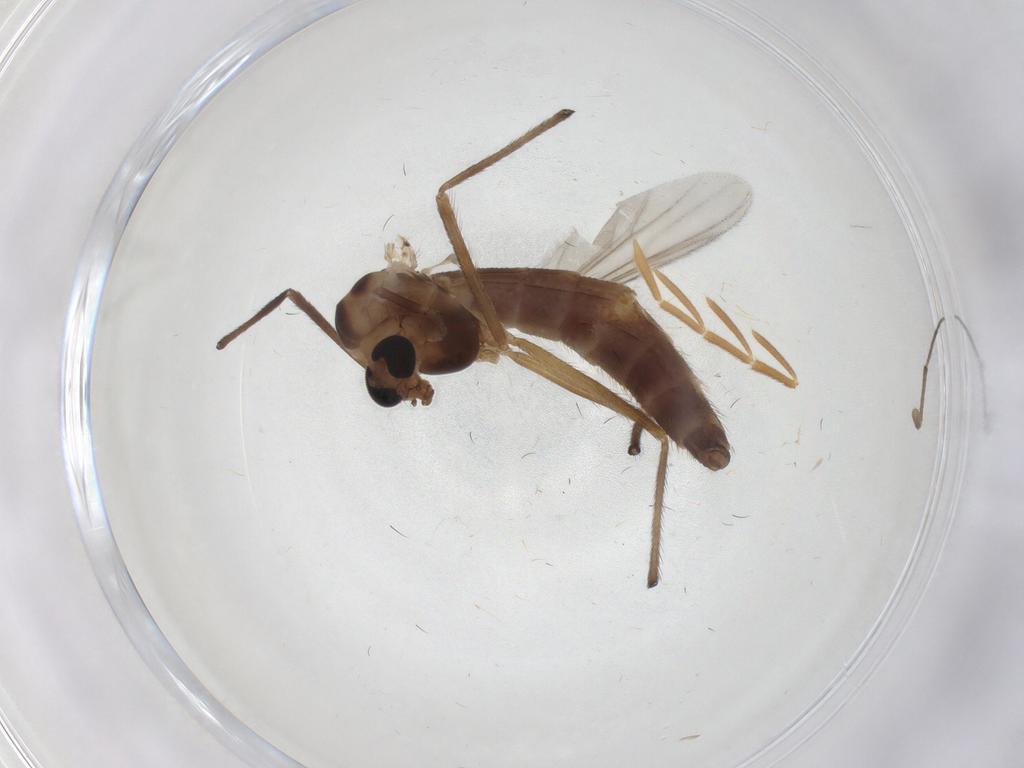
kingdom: Animalia
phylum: Arthropoda
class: Insecta
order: Diptera
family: Chironomidae
